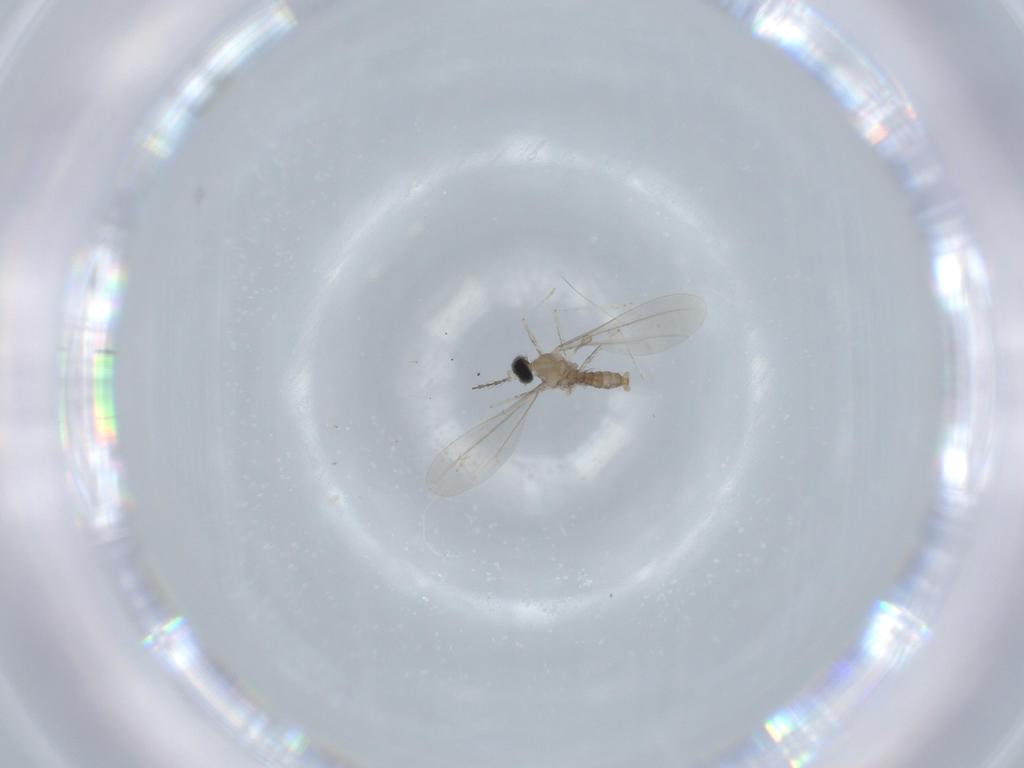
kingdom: Animalia
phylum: Arthropoda
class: Insecta
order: Diptera
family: Cecidomyiidae
